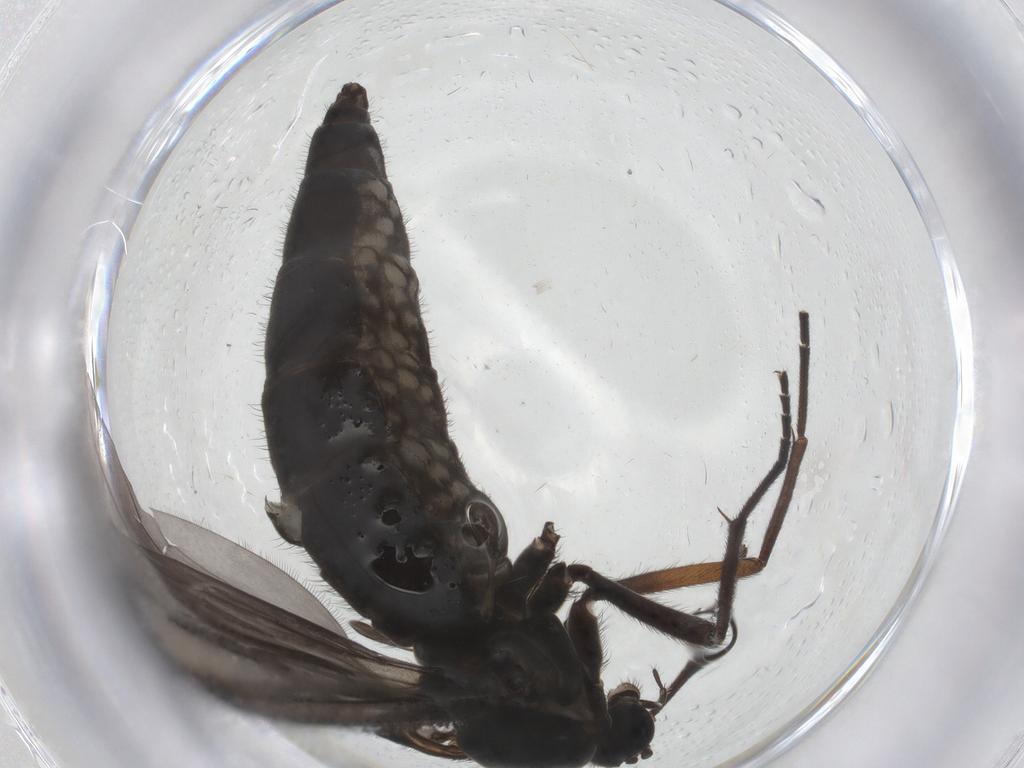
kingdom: Animalia
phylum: Arthropoda
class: Insecta
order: Diptera
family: Sciaridae
